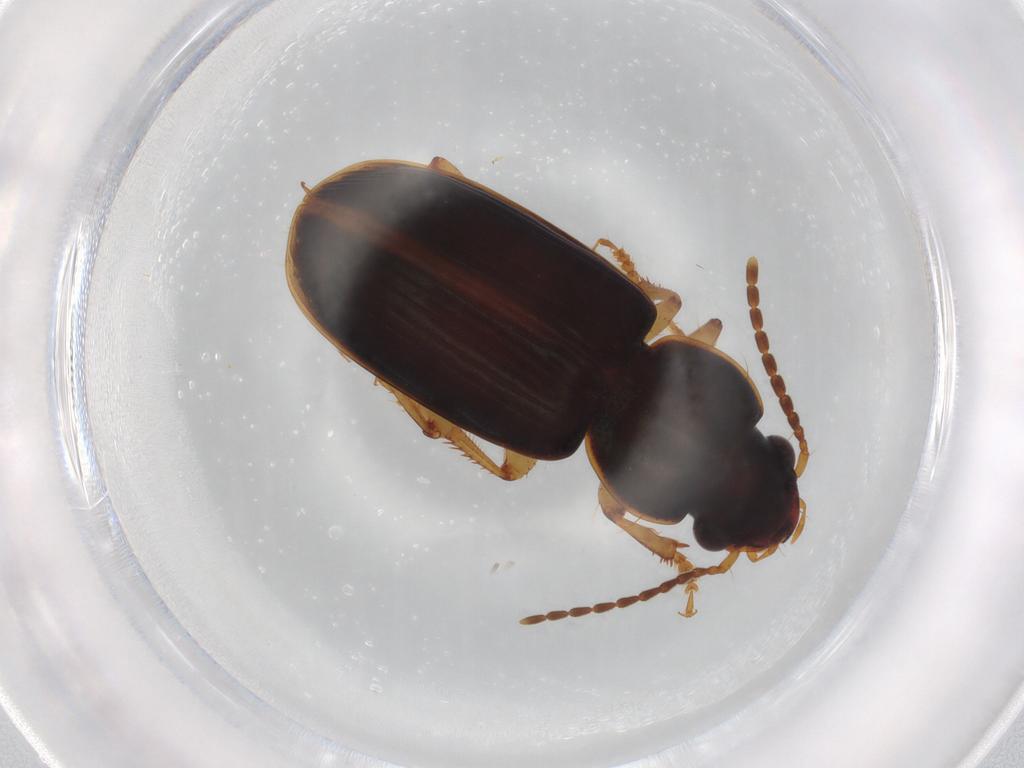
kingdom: Animalia
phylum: Arthropoda
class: Insecta
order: Coleoptera
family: Carabidae
